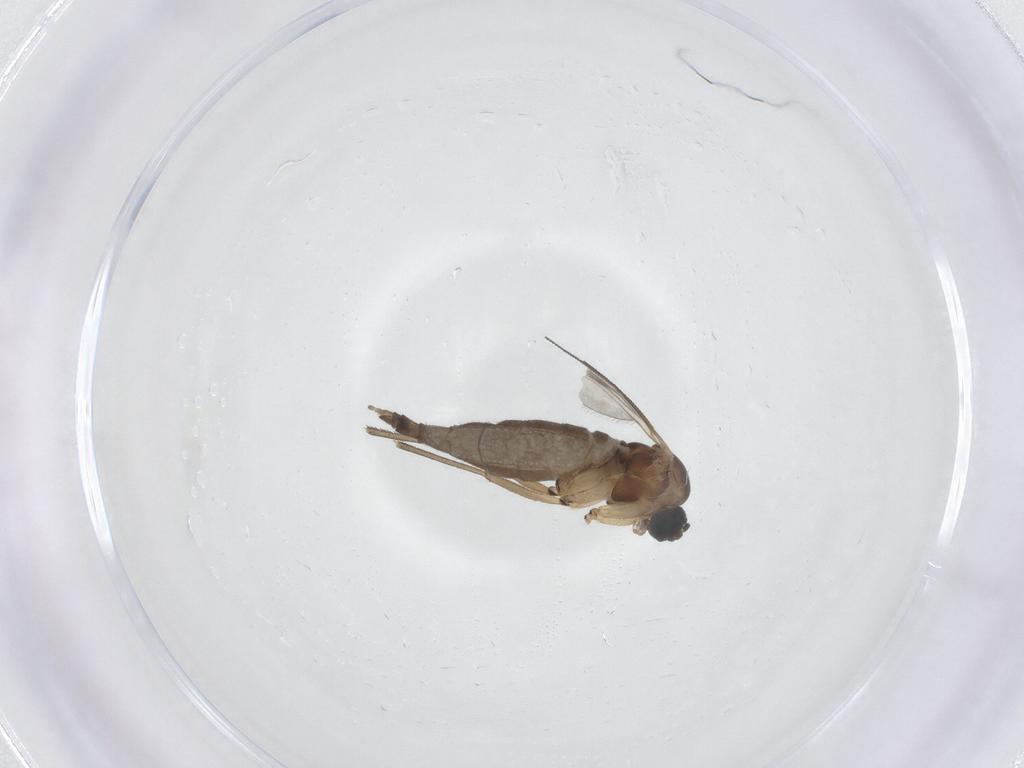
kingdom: Animalia
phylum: Arthropoda
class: Insecta
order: Diptera
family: Sciaridae
